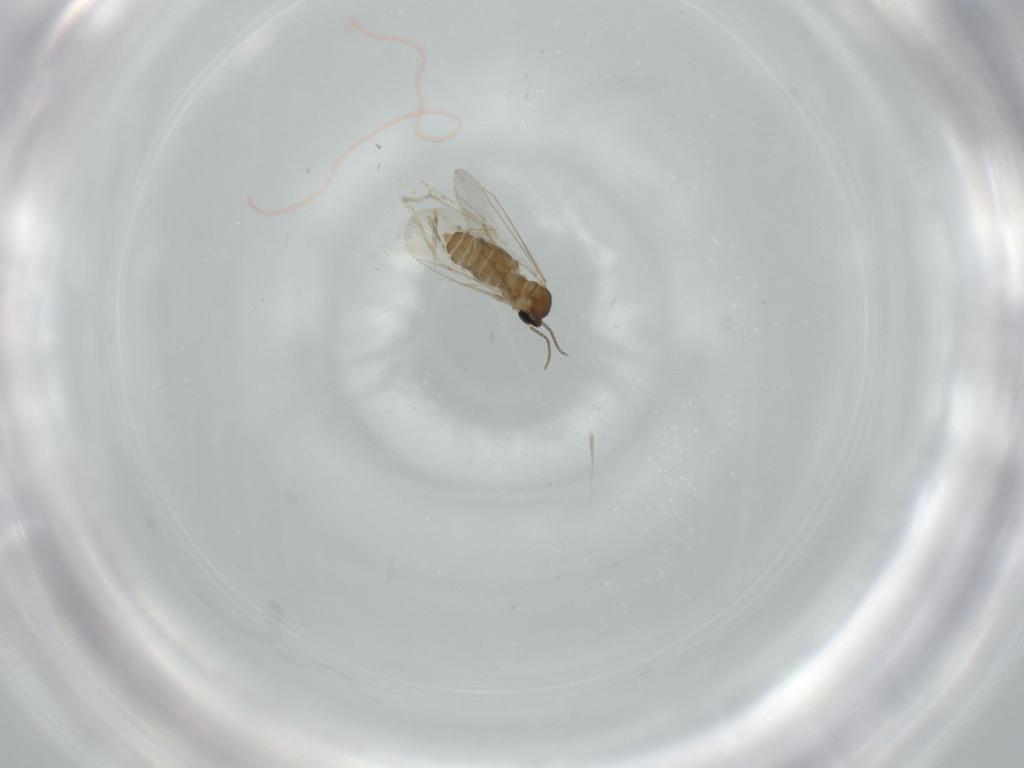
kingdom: Animalia
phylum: Arthropoda
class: Insecta
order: Diptera
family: Cecidomyiidae
